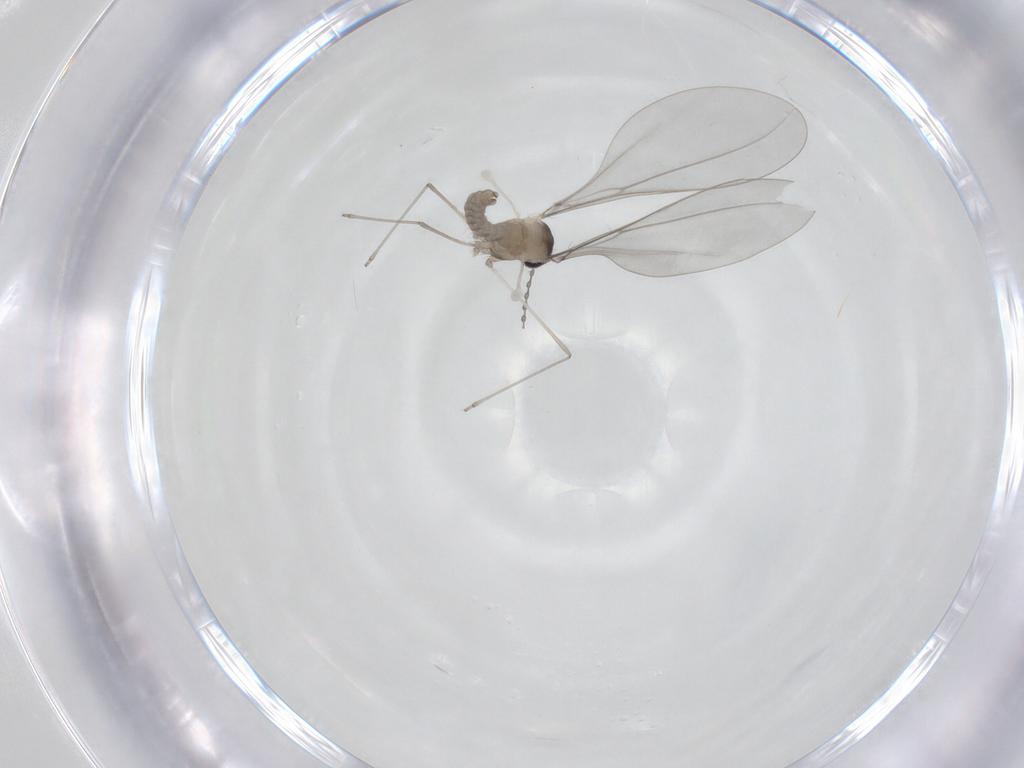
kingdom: Animalia
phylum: Arthropoda
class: Insecta
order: Diptera
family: Cecidomyiidae
